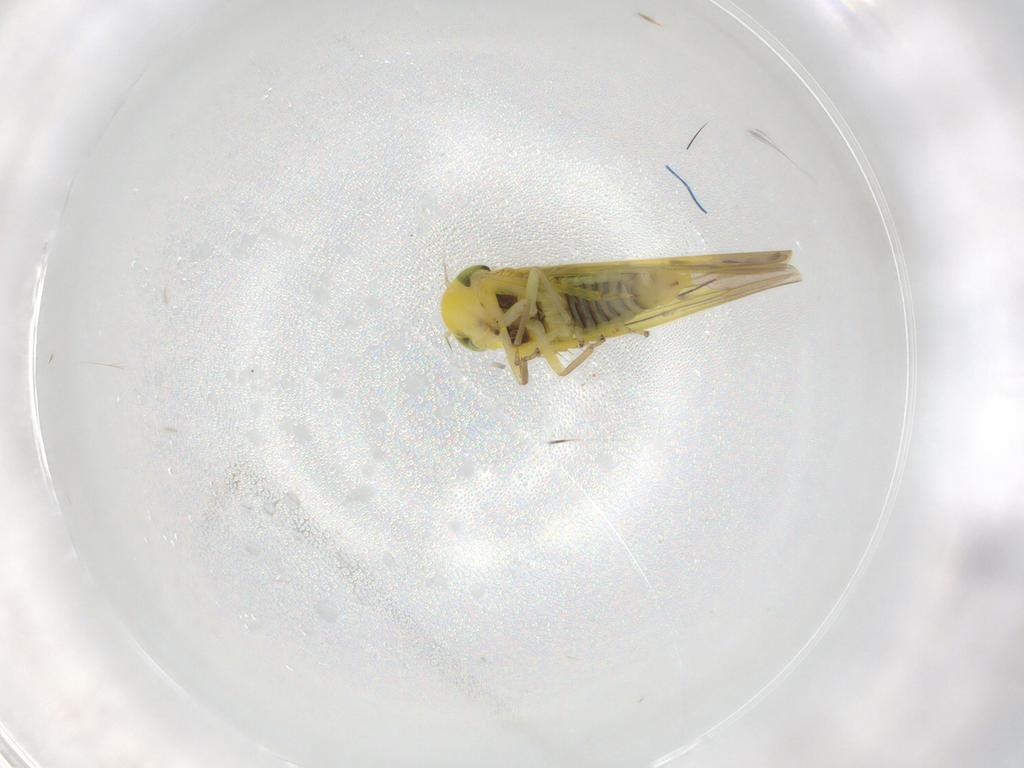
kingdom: Animalia
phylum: Arthropoda
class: Insecta
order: Hemiptera
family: Cicadellidae
